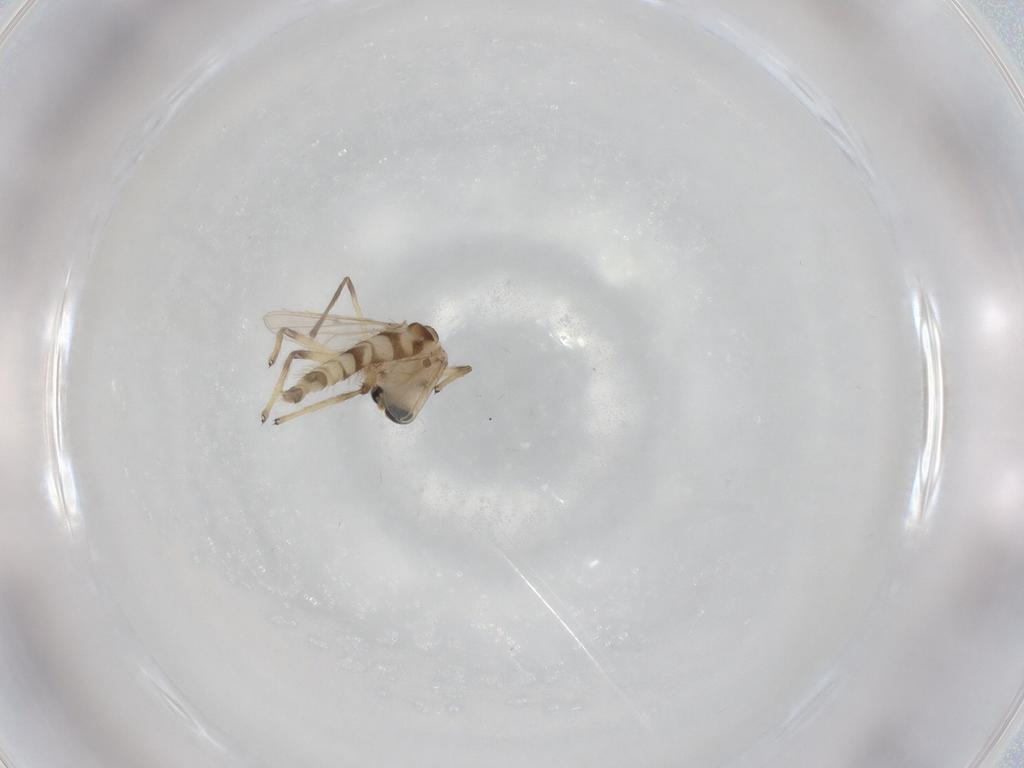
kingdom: Animalia
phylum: Arthropoda
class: Insecta
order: Diptera
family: Chironomidae
